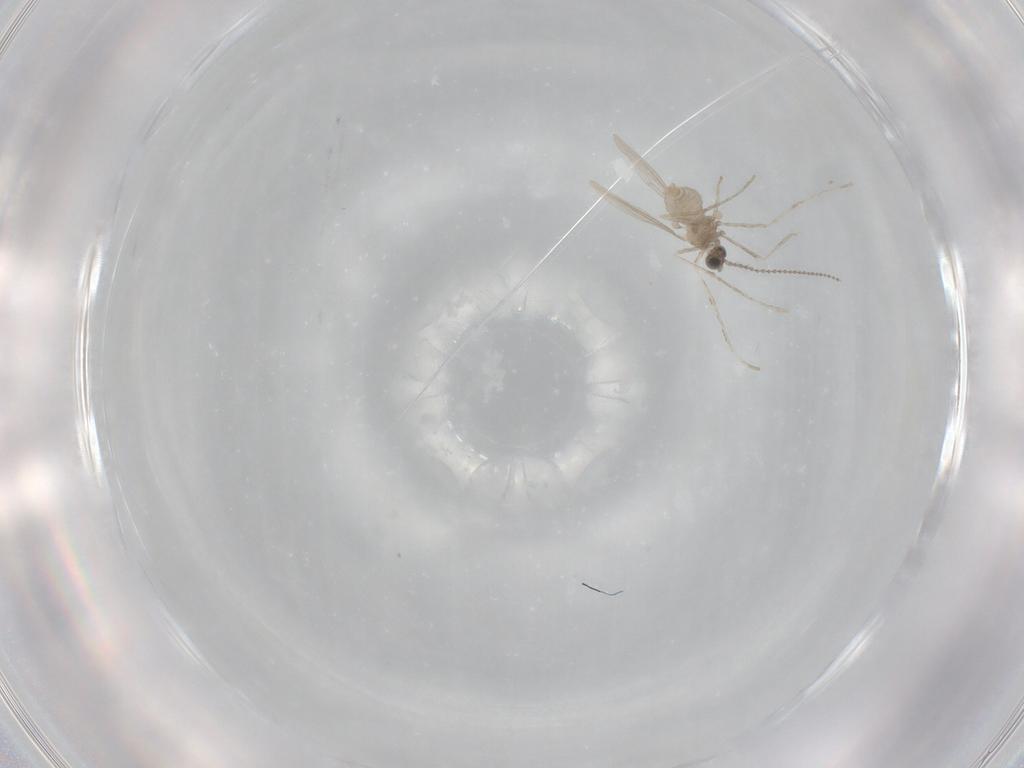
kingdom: Animalia
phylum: Arthropoda
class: Insecta
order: Diptera
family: Cecidomyiidae
